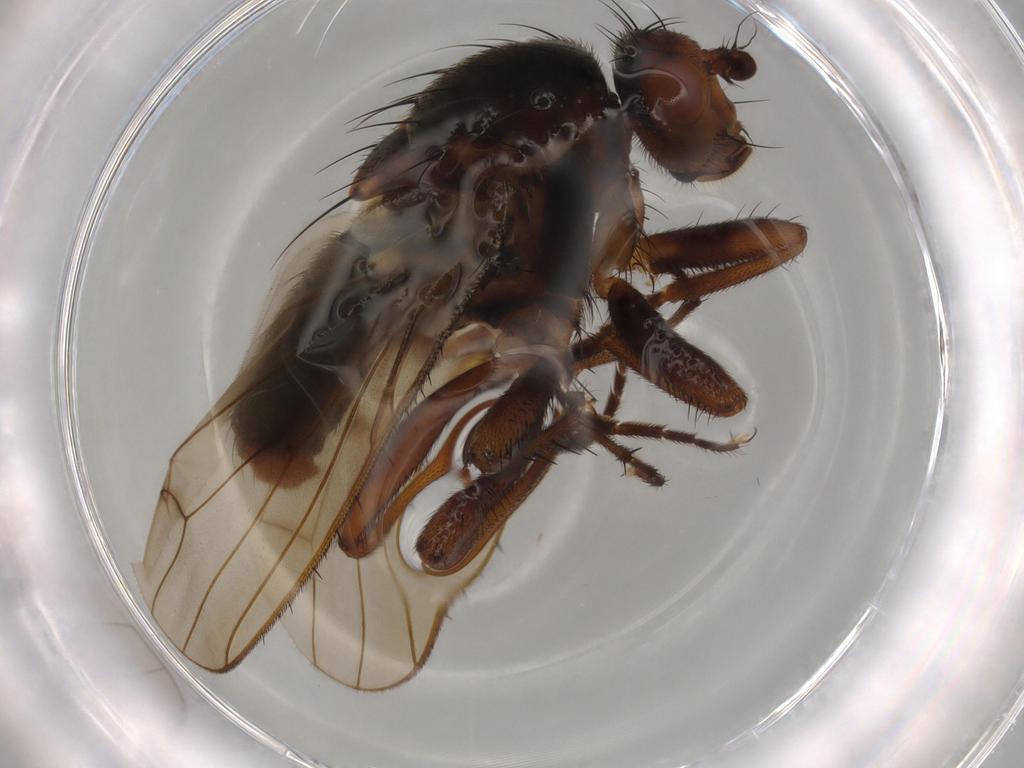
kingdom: Animalia
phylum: Arthropoda
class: Insecta
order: Diptera
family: Heleomyzidae
